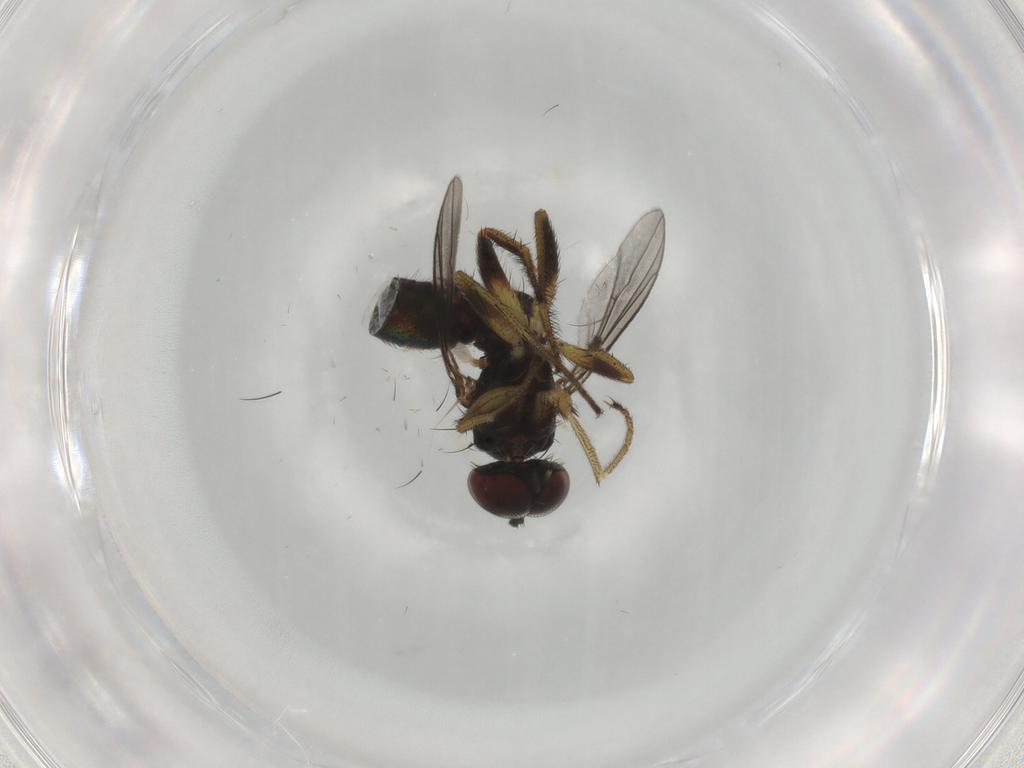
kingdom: Animalia
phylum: Arthropoda
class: Insecta
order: Diptera
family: Dolichopodidae
